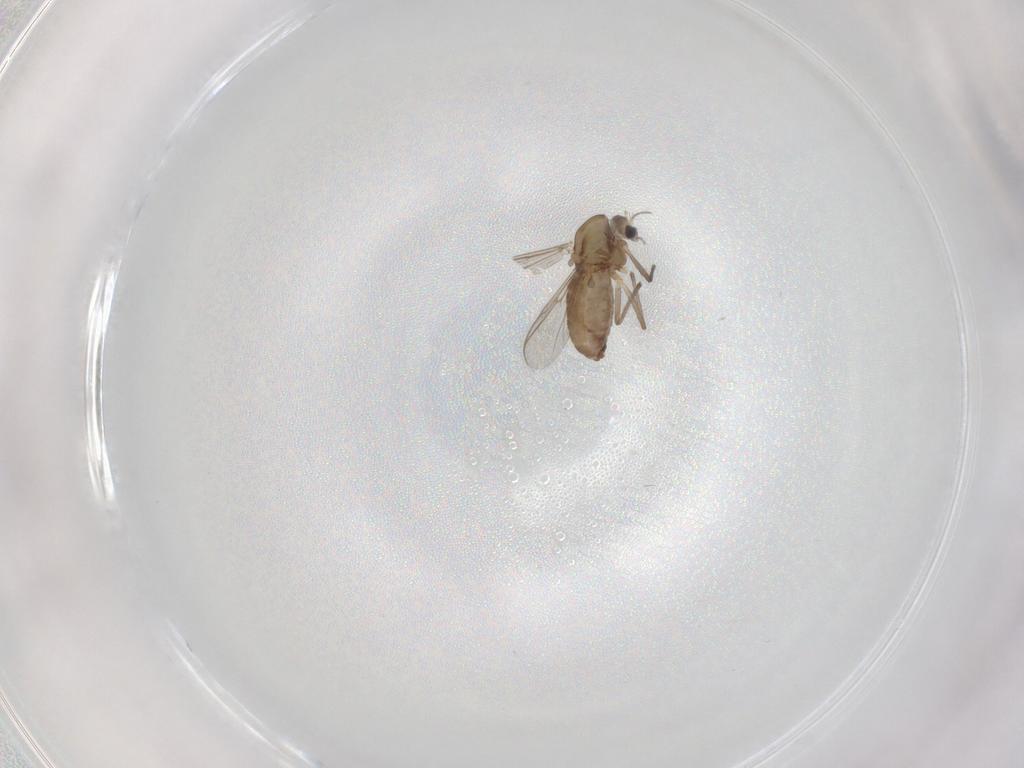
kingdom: Animalia
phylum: Arthropoda
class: Insecta
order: Diptera
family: Chironomidae
